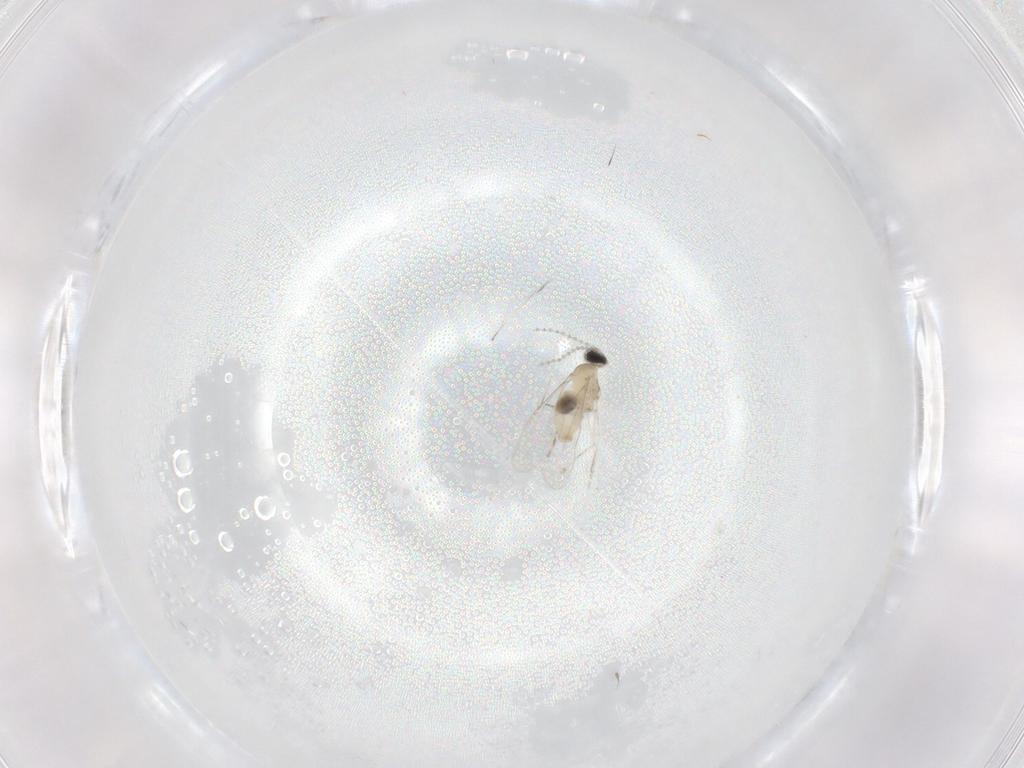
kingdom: Animalia
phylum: Arthropoda
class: Insecta
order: Diptera
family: Cecidomyiidae
